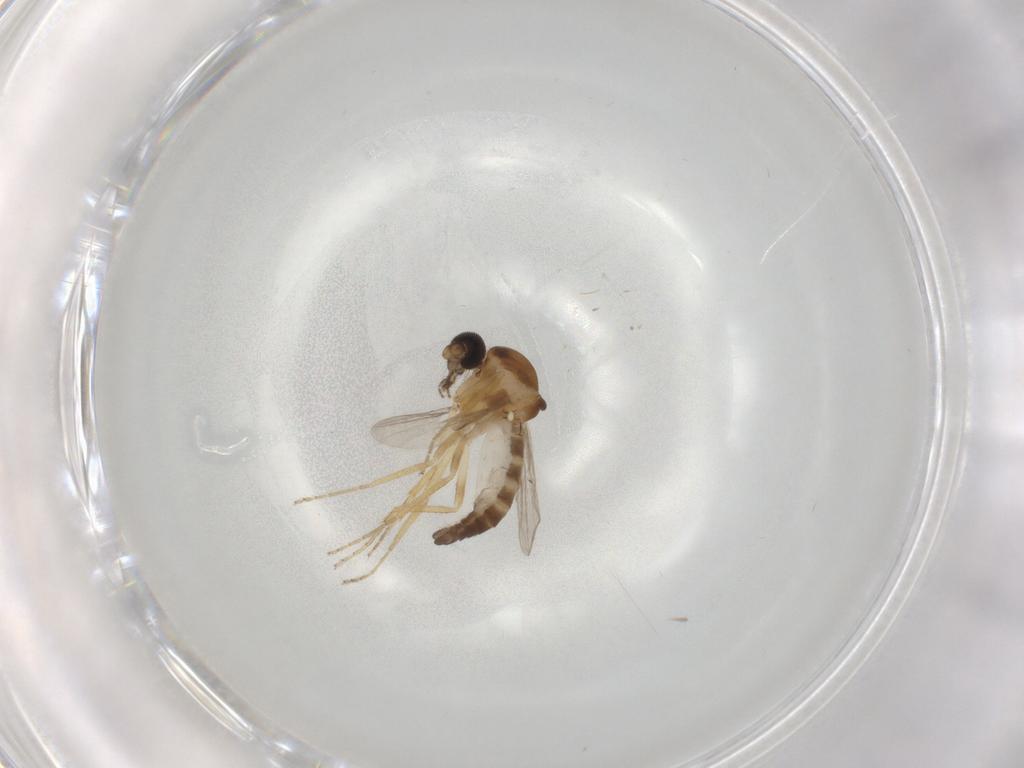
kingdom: Animalia
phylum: Arthropoda
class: Insecta
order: Diptera
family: Ceratopogonidae
